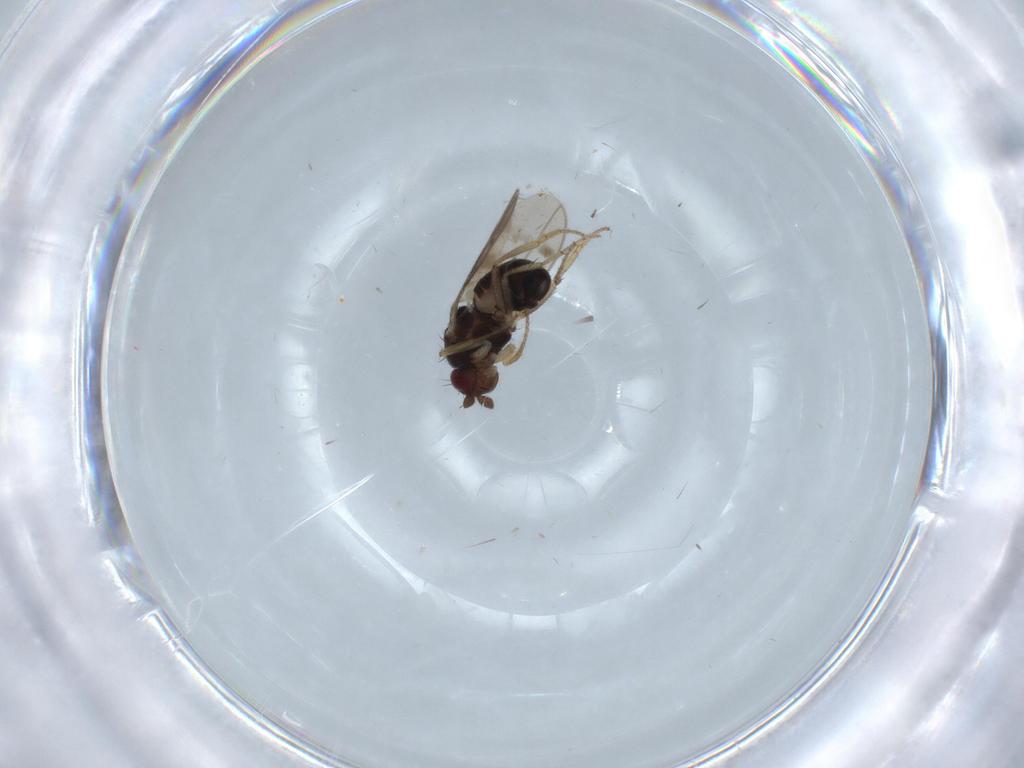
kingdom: Animalia
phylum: Arthropoda
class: Insecta
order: Diptera
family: Sphaeroceridae
